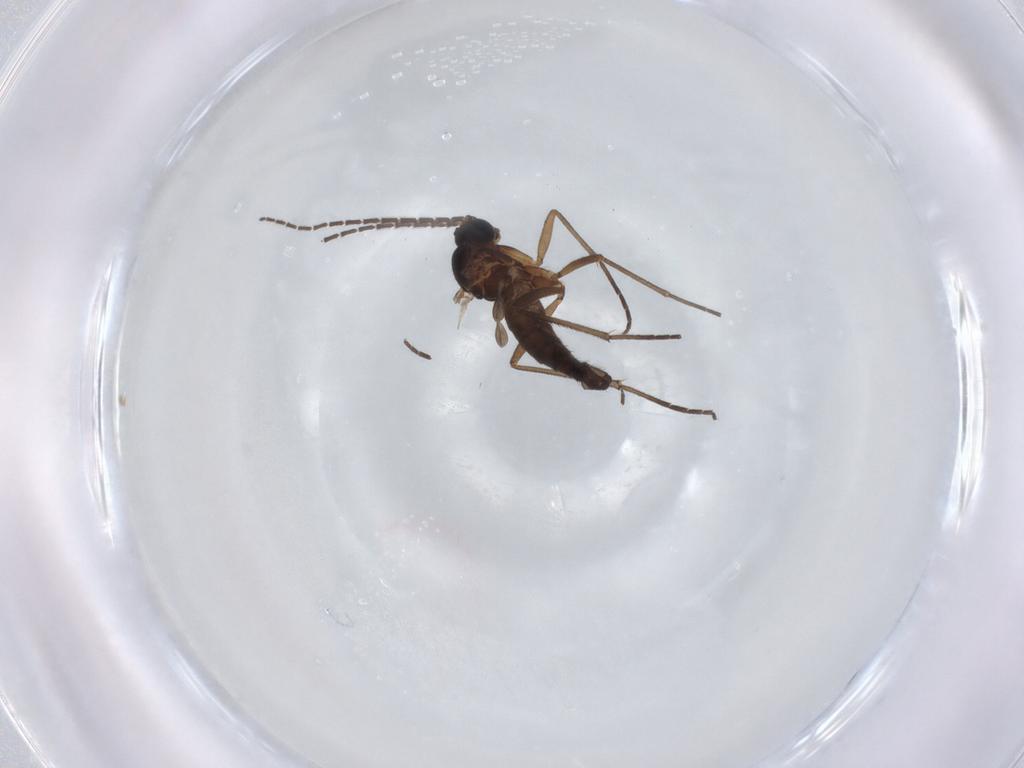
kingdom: Animalia
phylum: Arthropoda
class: Insecta
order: Diptera
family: Sciaridae
